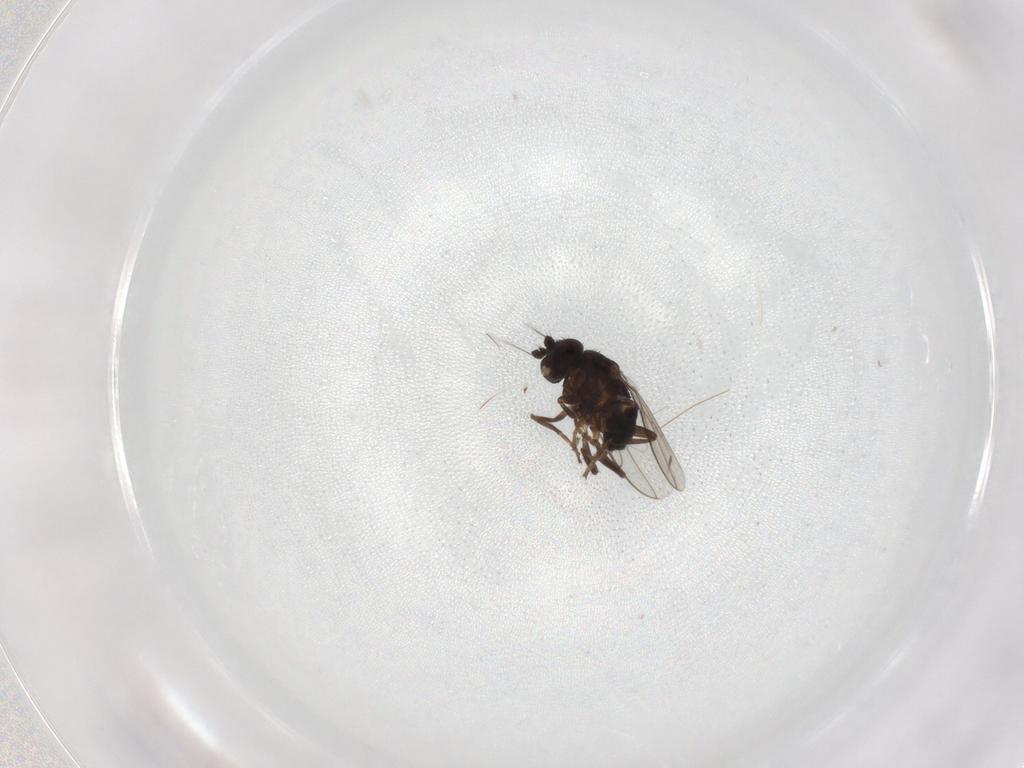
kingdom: Animalia
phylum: Arthropoda
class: Insecta
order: Diptera
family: Sphaeroceridae
